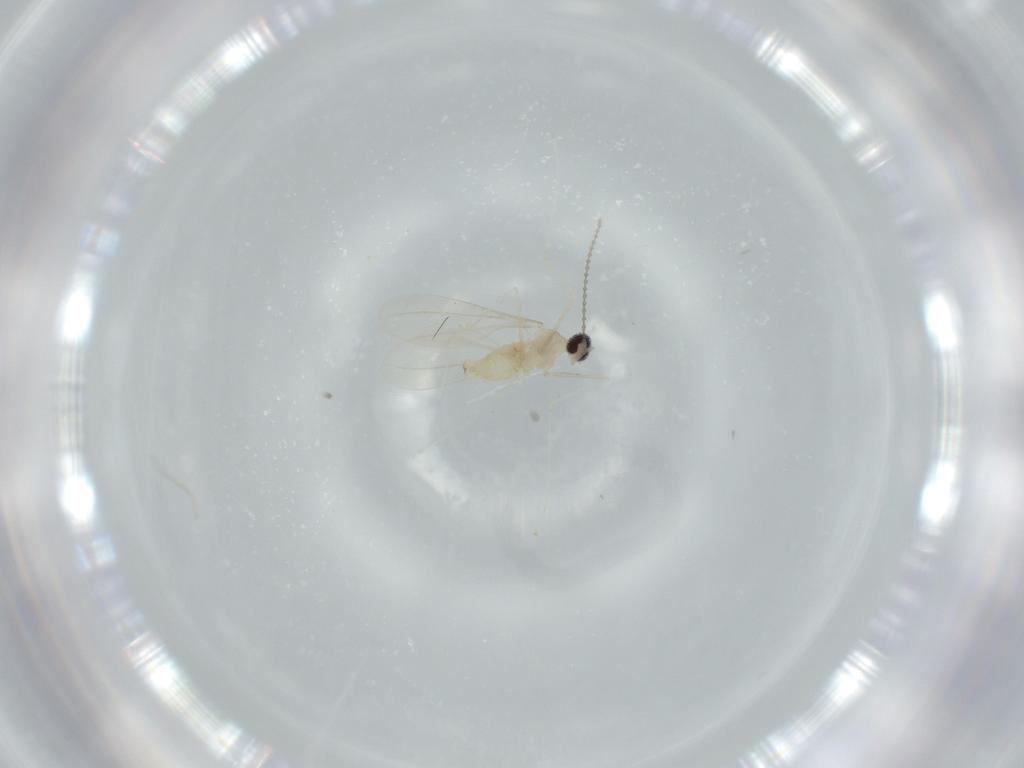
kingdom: Animalia
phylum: Arthropoda
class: Insecta
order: Diptera
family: Cecidomyiidae
